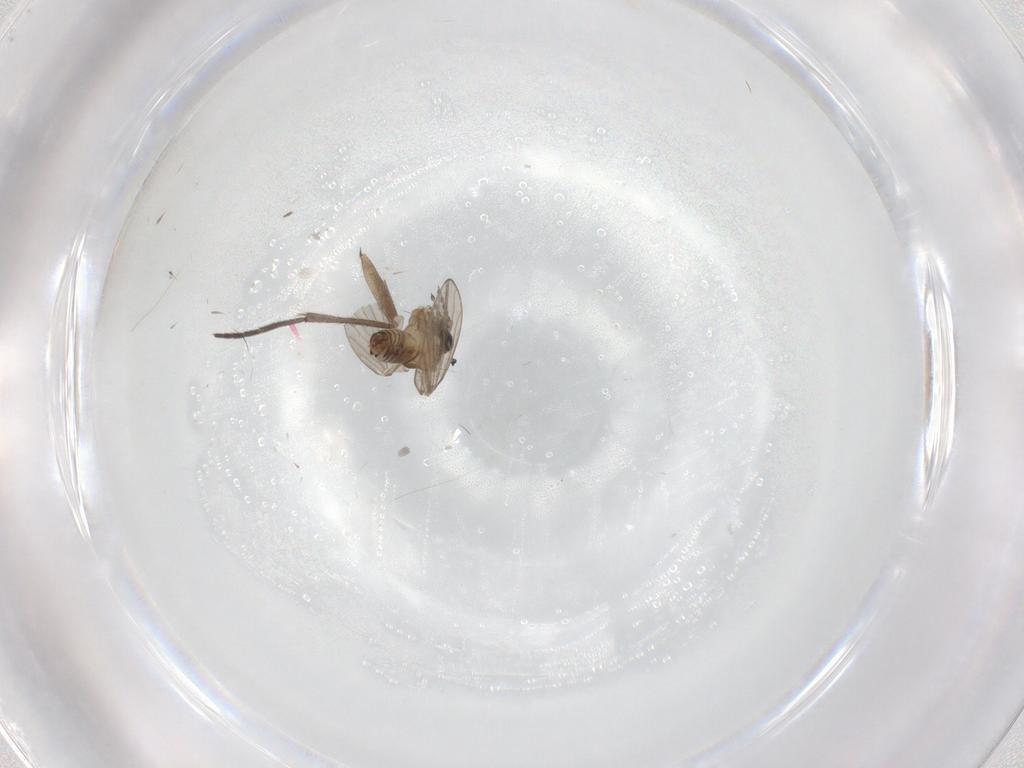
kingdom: Animalia
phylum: Arthropoda
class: Insecta
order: Diptera
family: Sciaridae
